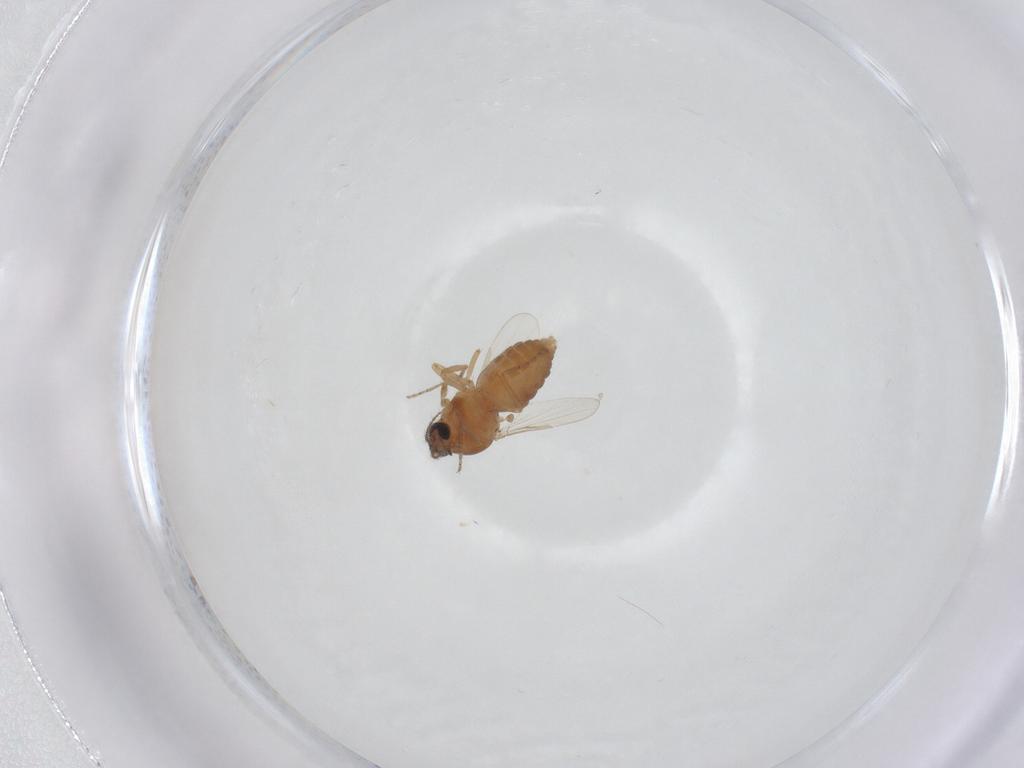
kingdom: Animalia
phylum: Arthropoda
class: Insecta
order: Diptera
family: Ceratopogonidae
